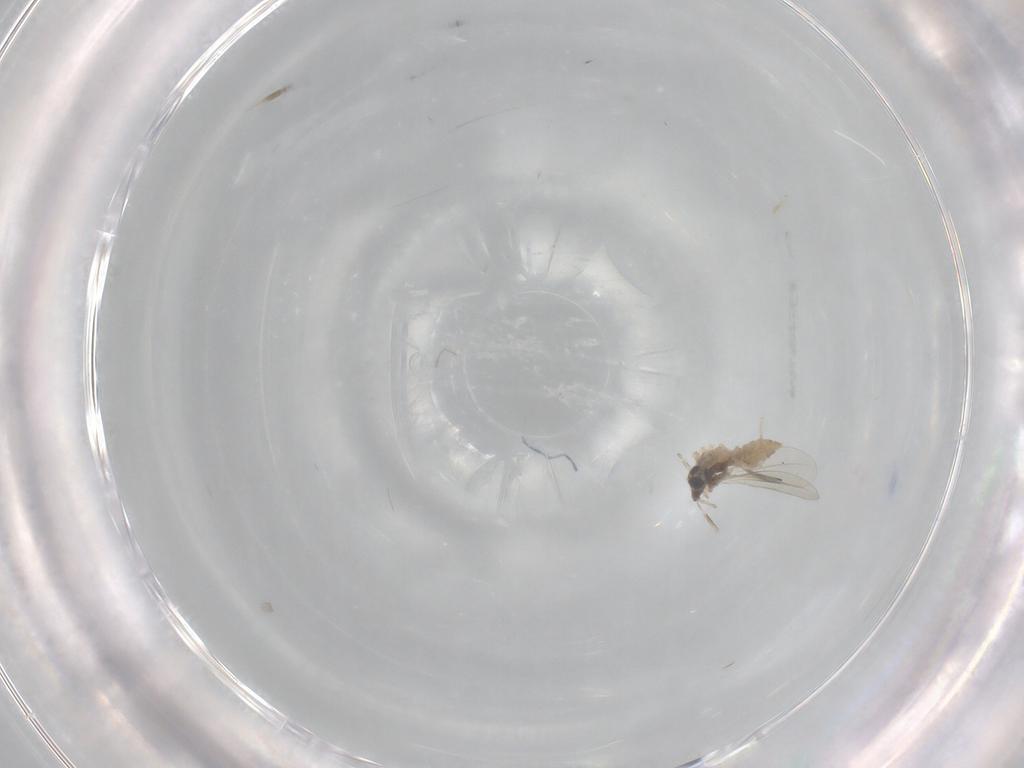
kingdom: Animalia
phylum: Arthropoda
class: Insecta
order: Diptera
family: Cecidomyiidae
